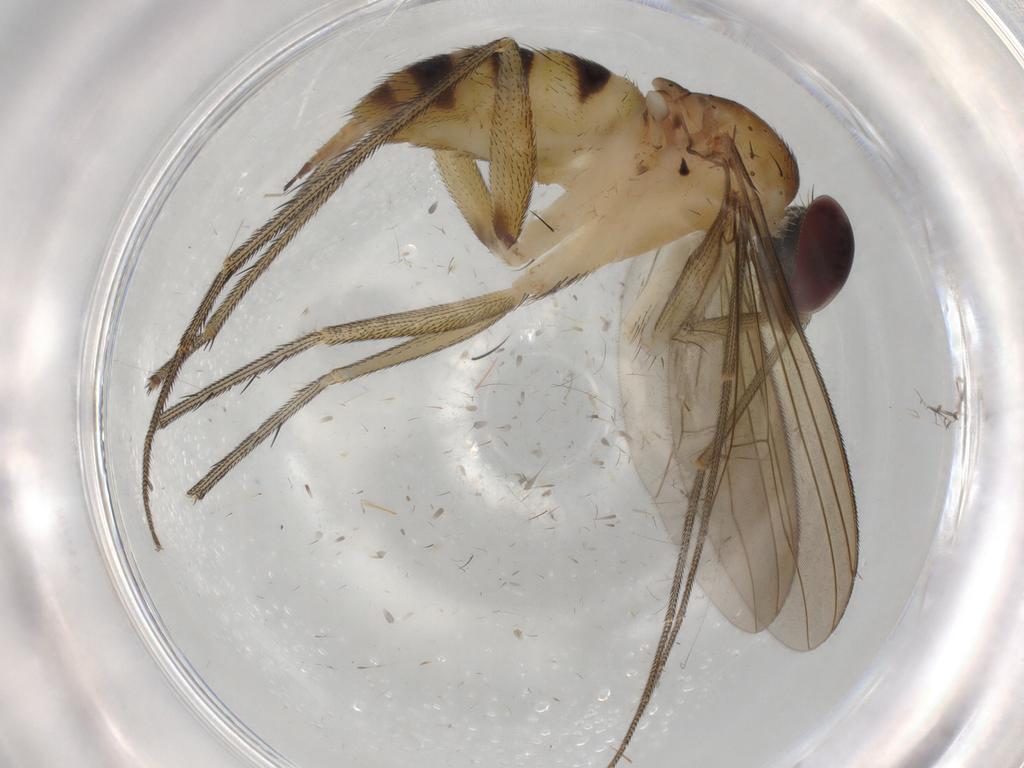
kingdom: Animalia
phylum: Arthropoda
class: Insecta
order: Diptera
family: Dolichopodidae
